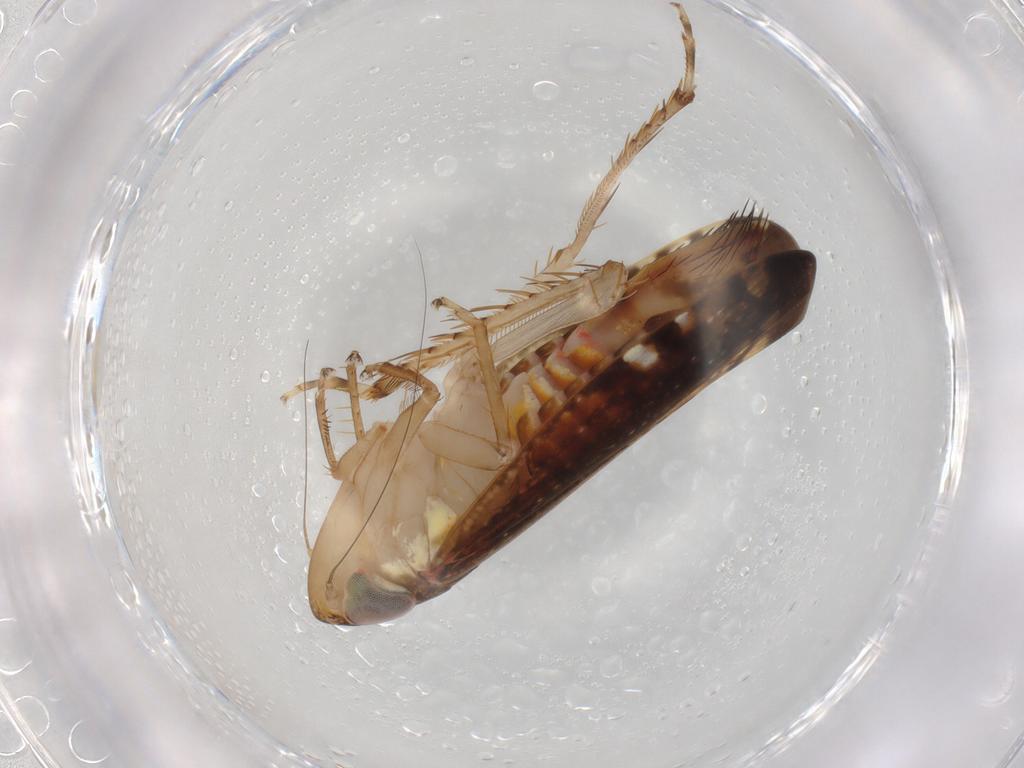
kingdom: Animalia
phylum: Arthropoda
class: Insecta
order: Hemiptera
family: Cicadellidae
